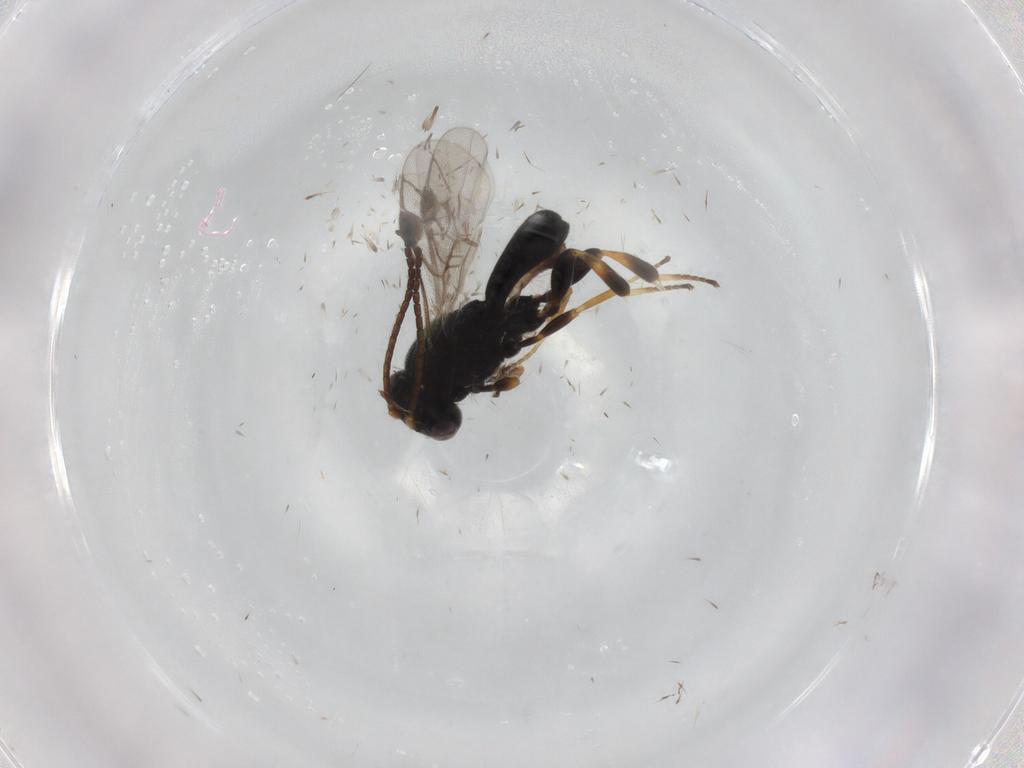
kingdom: Animalia
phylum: Arthropoda
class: Insecta
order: Hymenoptera
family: Braconidae
